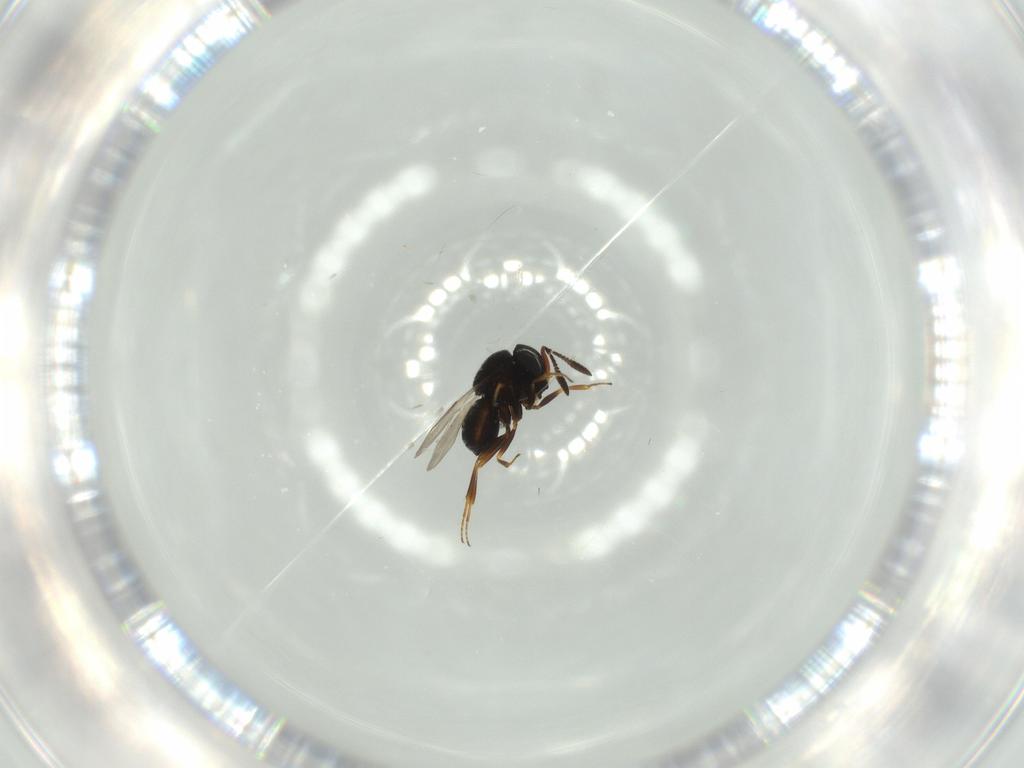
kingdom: Animalia
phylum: Arthropoda
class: Insecta
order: Hymenoptera
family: Scelionidae
